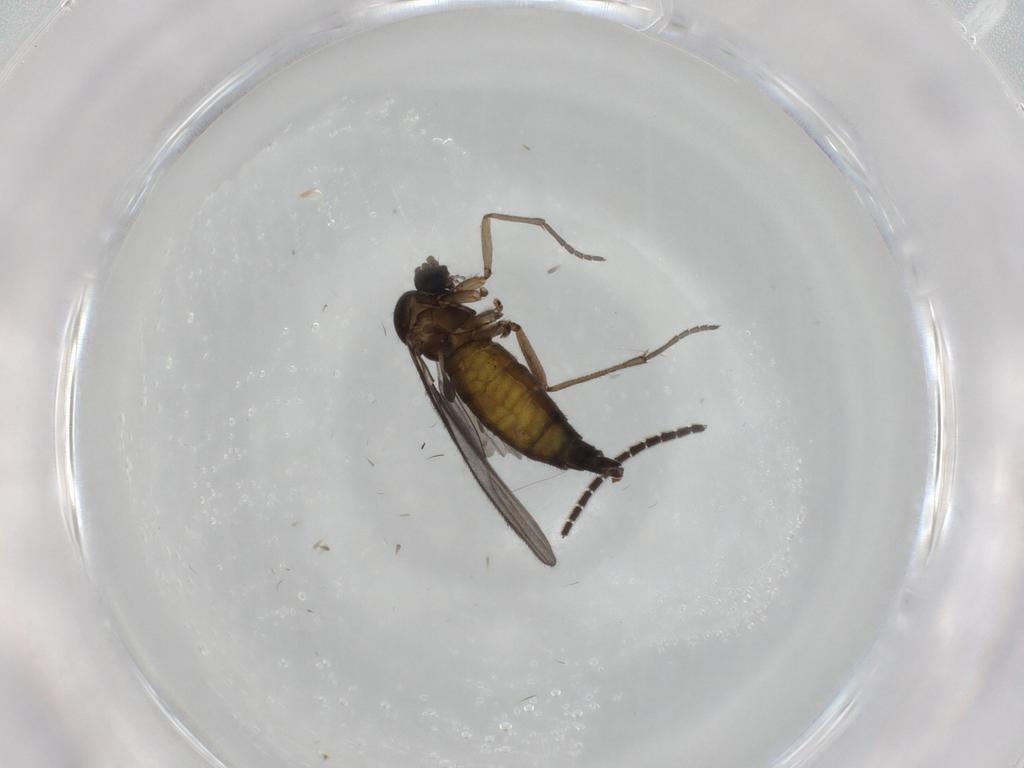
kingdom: Animalia
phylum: Arthropoda
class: Insecta
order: Diptera
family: Sciaridae
